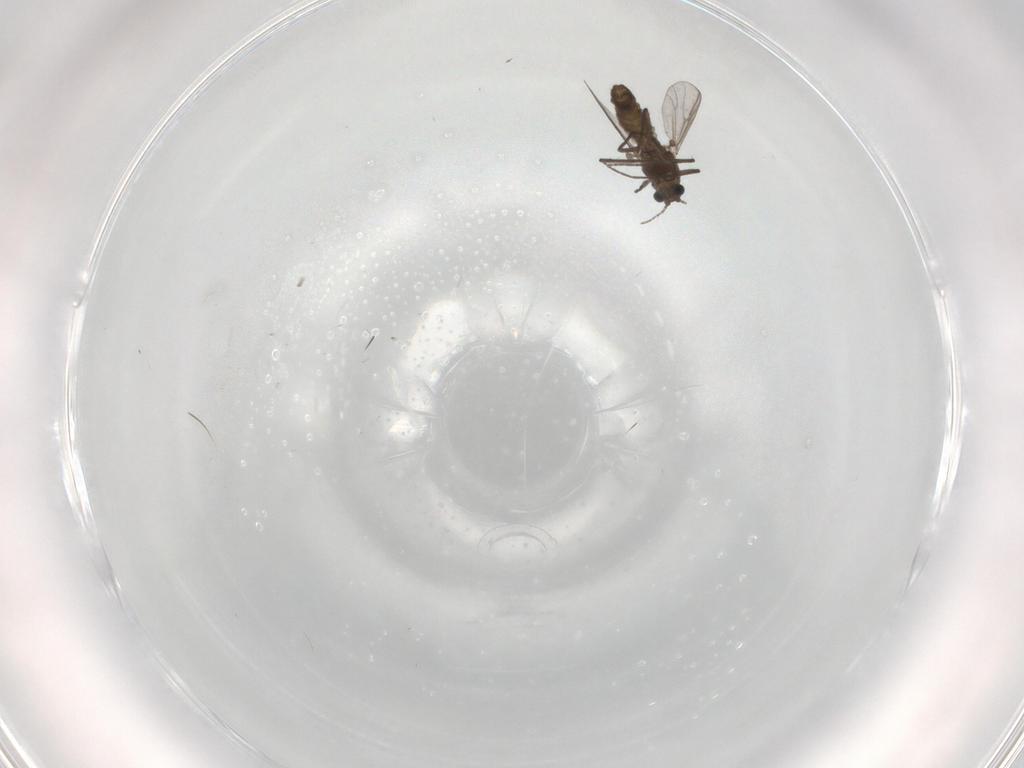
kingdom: Animalia
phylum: Arthropoda
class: Insecta
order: Diptera
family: Chironomidae
